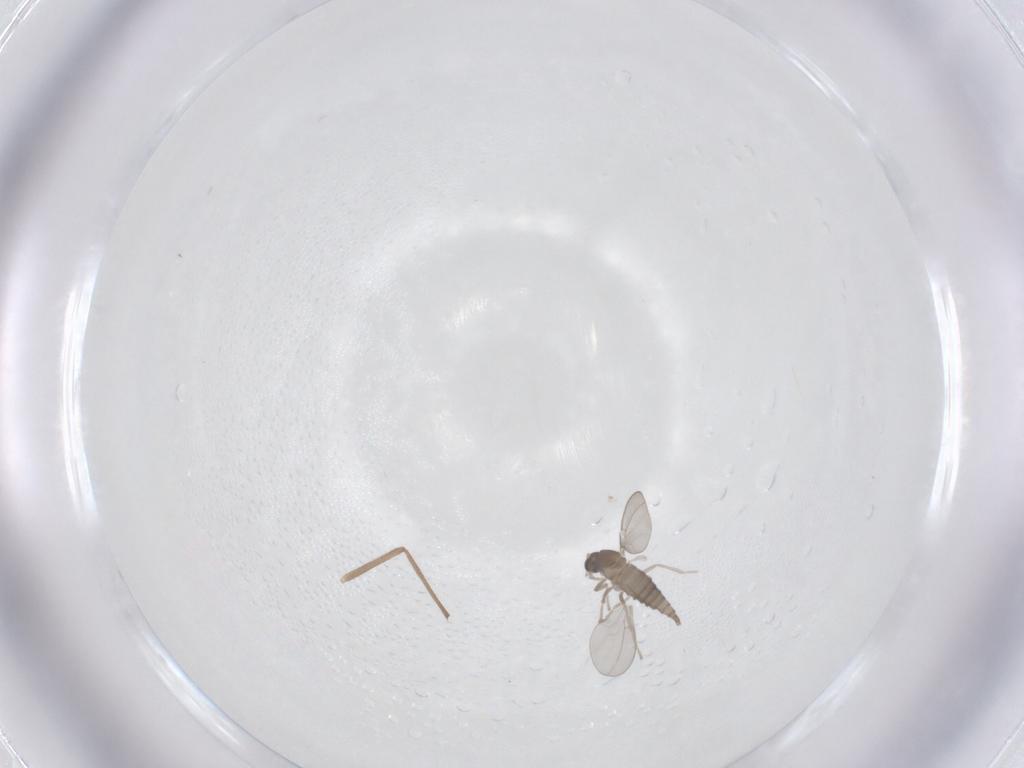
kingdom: Animalia
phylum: Arthropoda
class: Insecta
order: Diptera
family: Cecidomyiidae
